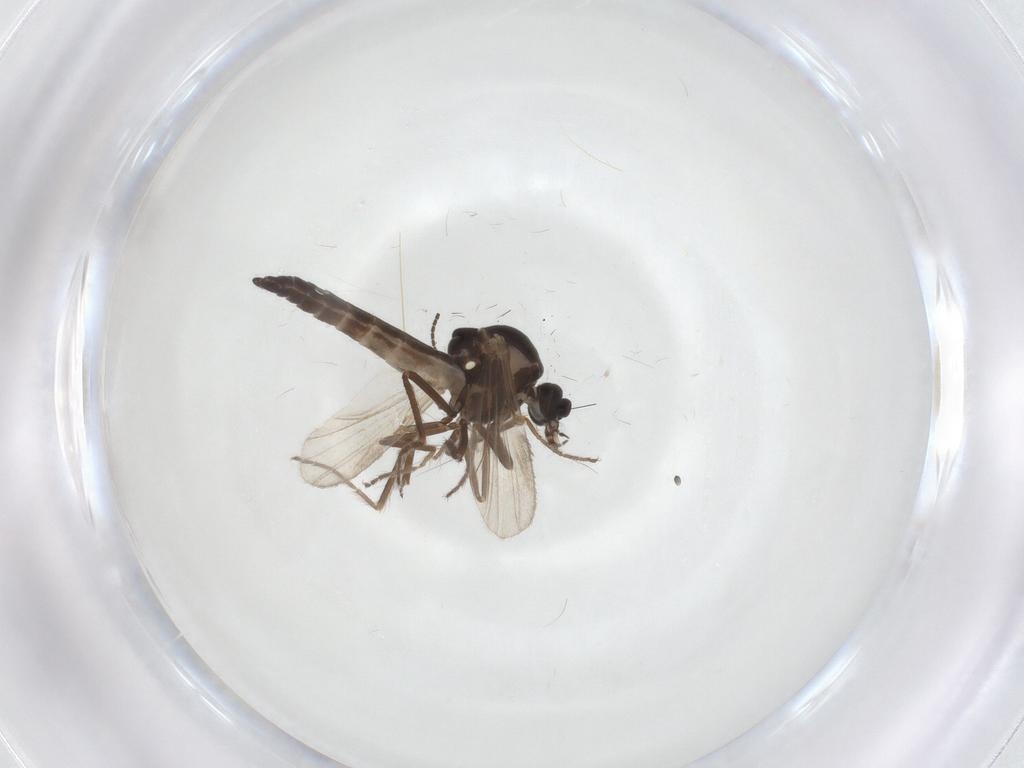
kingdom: Animalia
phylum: Arthropoda
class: Insecta
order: Diptera
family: Ceratopogonidae
